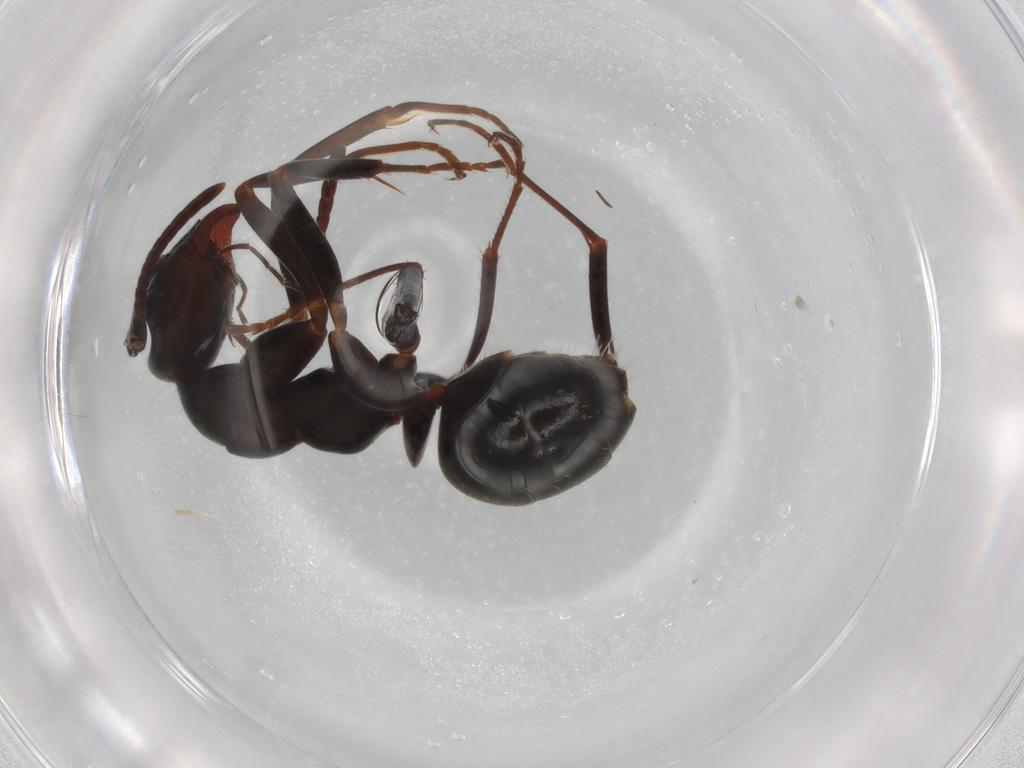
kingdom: Animalia
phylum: Arthropoda
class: Insecta
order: Hymenoptera
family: Formicidae
